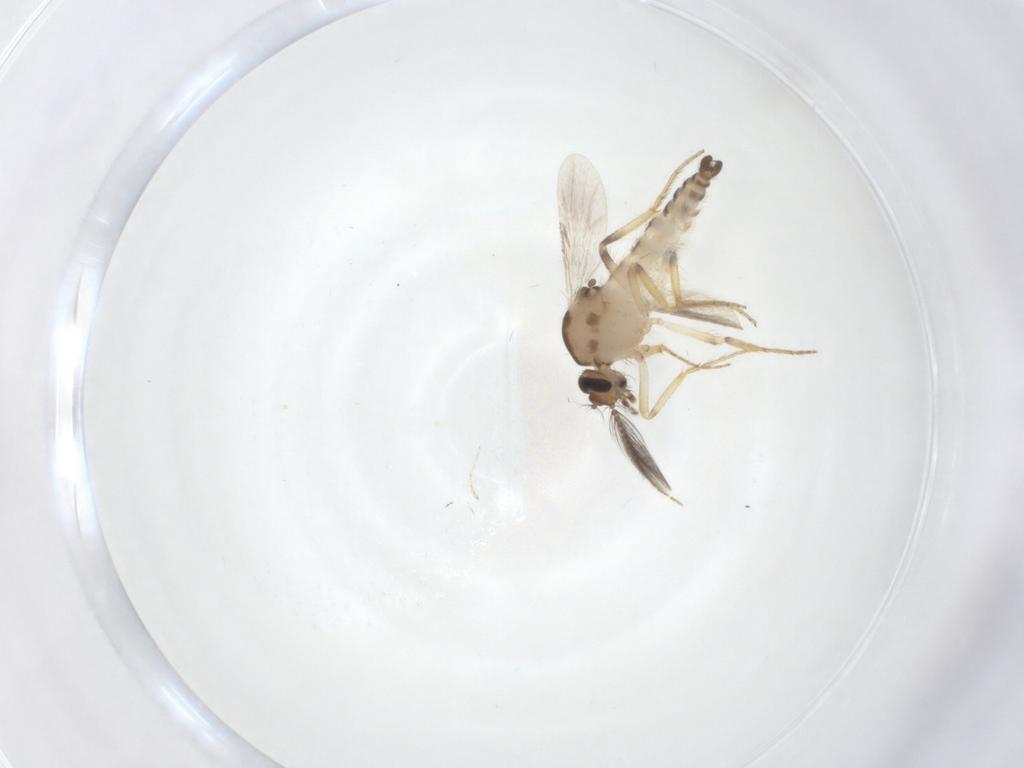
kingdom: Animalia
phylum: Arthropoda
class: Insecta
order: Diptera
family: Ceratopogonidae
